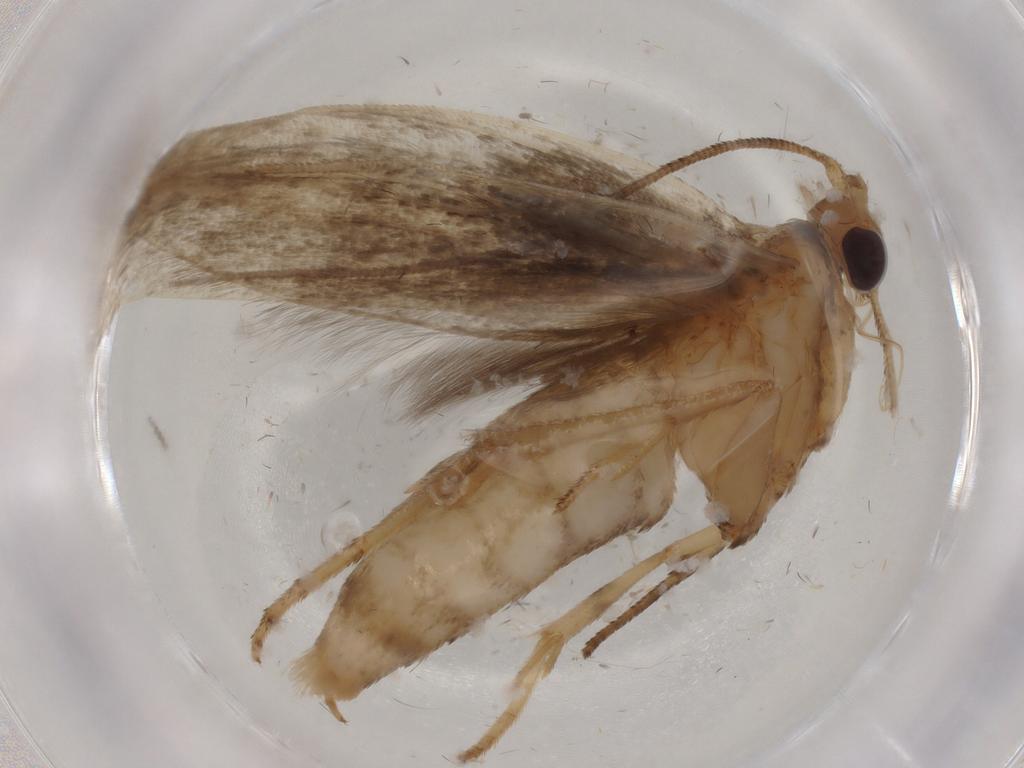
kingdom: Animalia
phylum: Arthropoda
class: Insecta
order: Lepidoptera
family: Yponomeutidae
